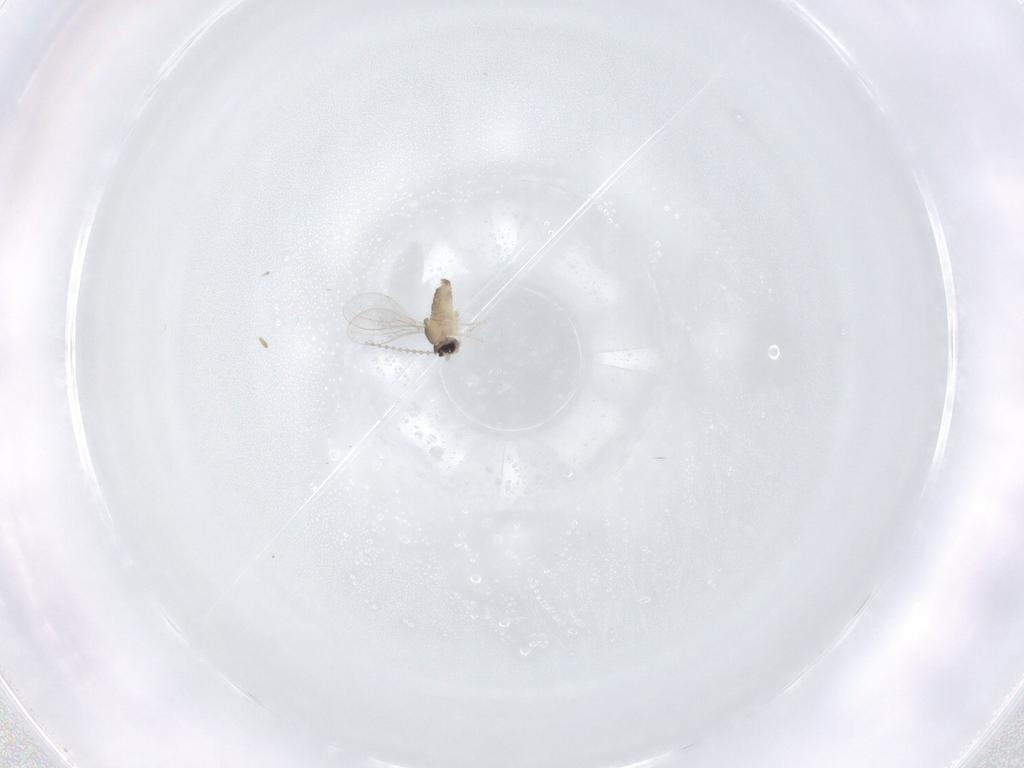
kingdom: Animalia
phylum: Arthropoda
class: Insecta
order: Diptera
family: Cecidomyiidae
